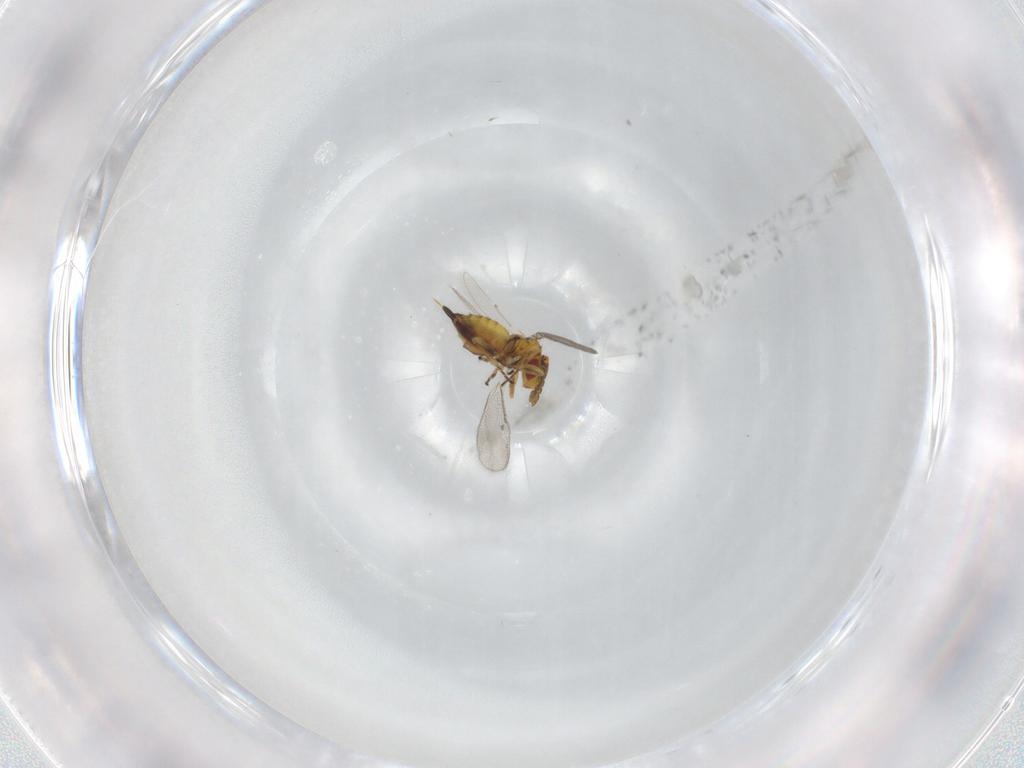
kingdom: Animalia
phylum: Arthropoda
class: Insecta
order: Hymenoptera
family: Eulophidae
